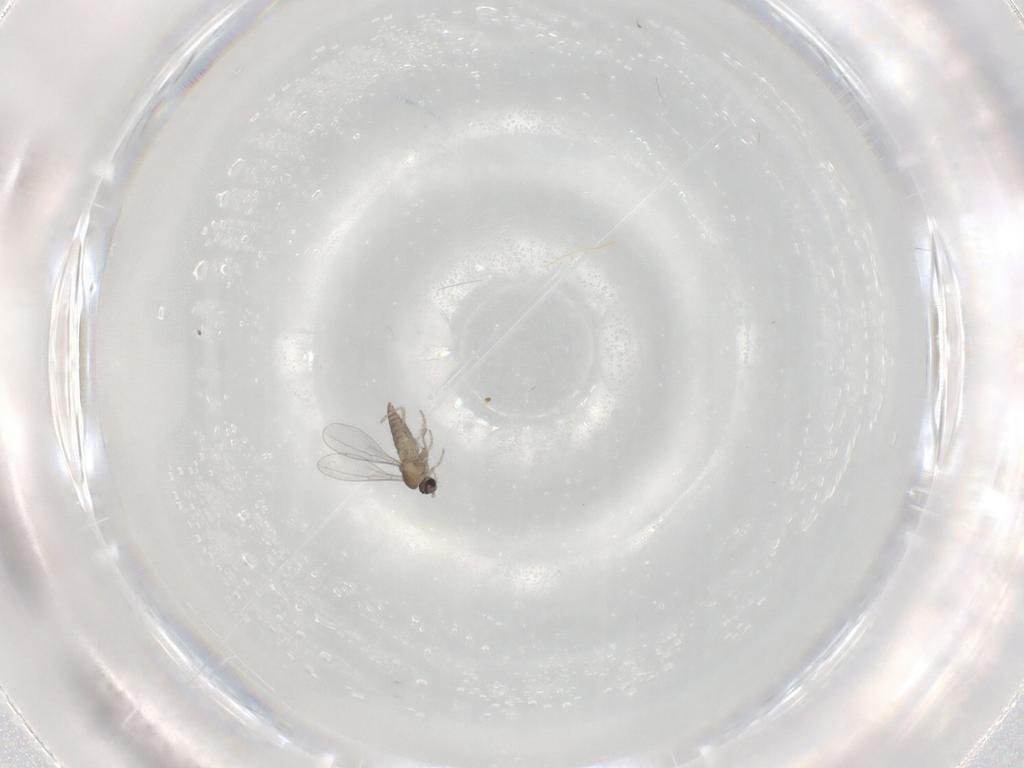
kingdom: Animalia
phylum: Arthropoda
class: Insecta
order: Diptera
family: Cecidomyiidae
